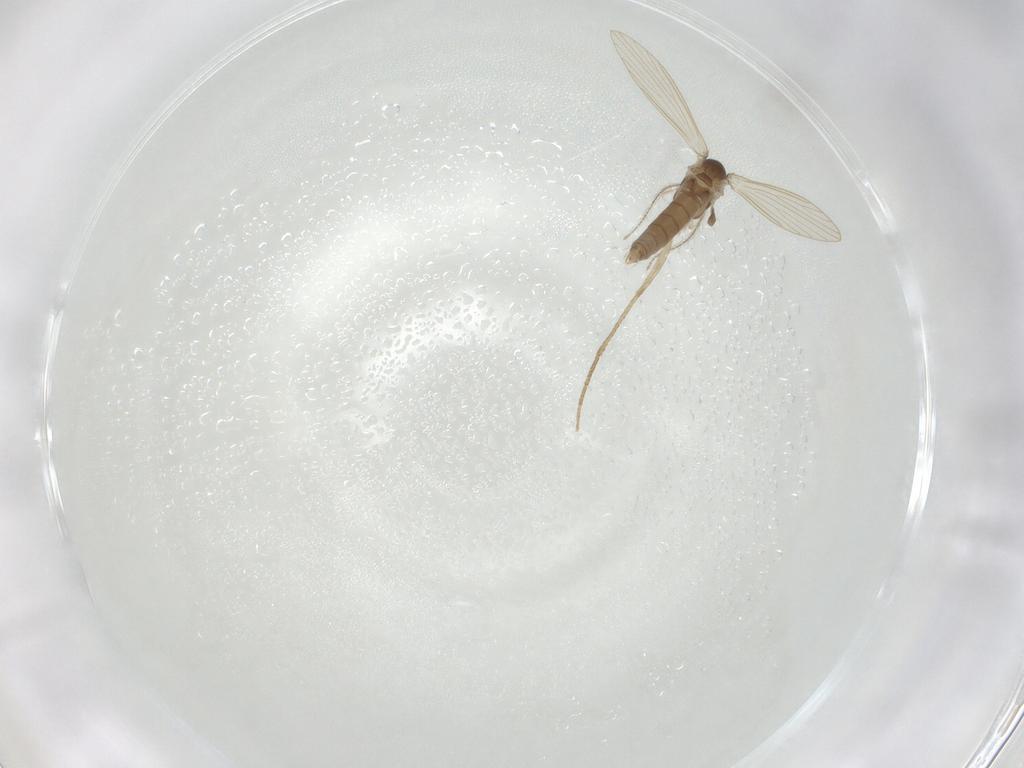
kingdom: Animalia
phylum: Arthropoda
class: Insecta
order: Diptera
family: Psychodidae
